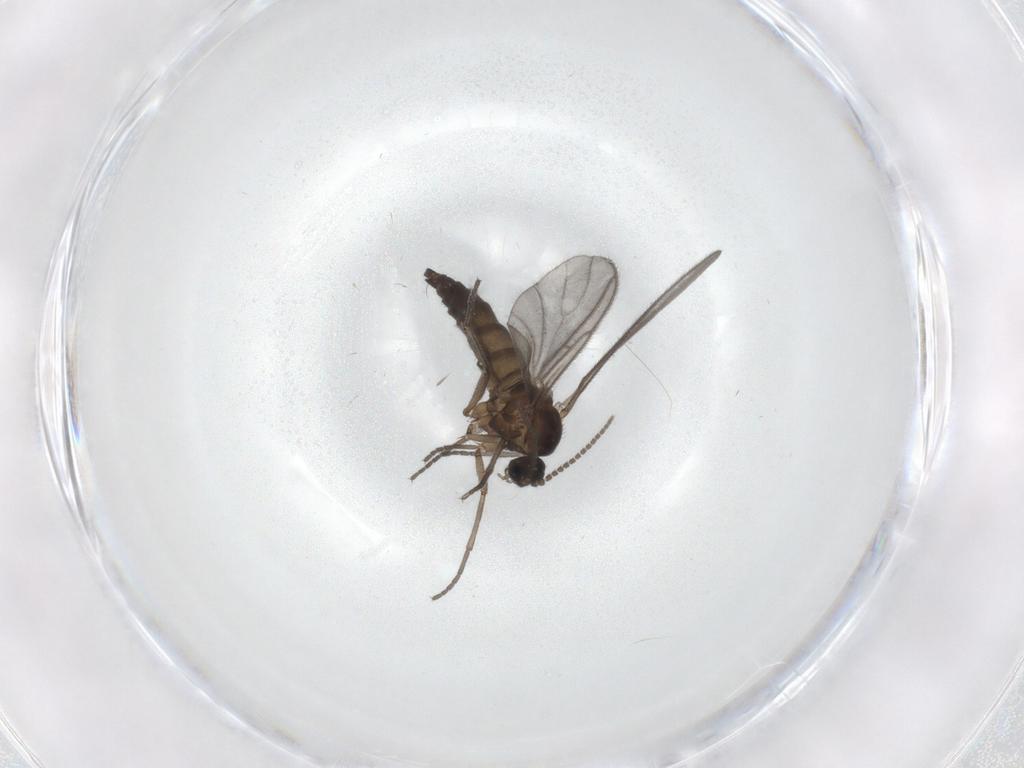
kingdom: Animalia
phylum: Arthropoda
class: Insecta
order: Diptera
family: Sciaridae
